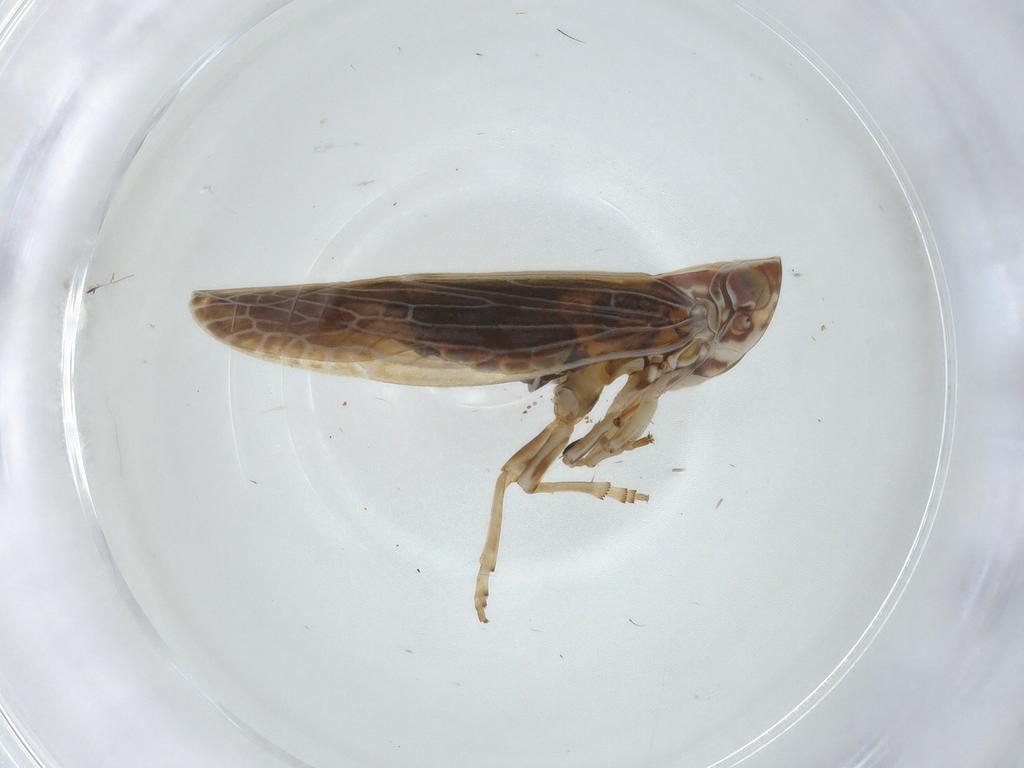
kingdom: Animalia
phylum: Arthropoda
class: Insecta
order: Hemiptera
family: Achilidae
